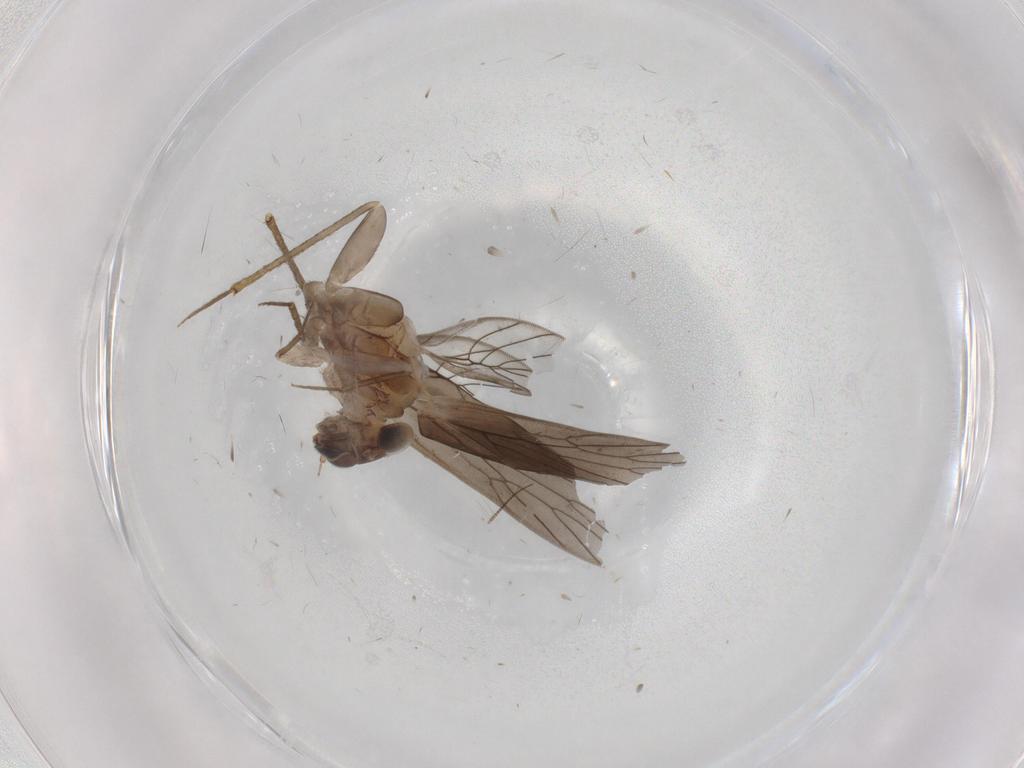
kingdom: Animalia
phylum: Arthropoda
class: Insecta
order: Psocodea
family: Lepidopsocidae
